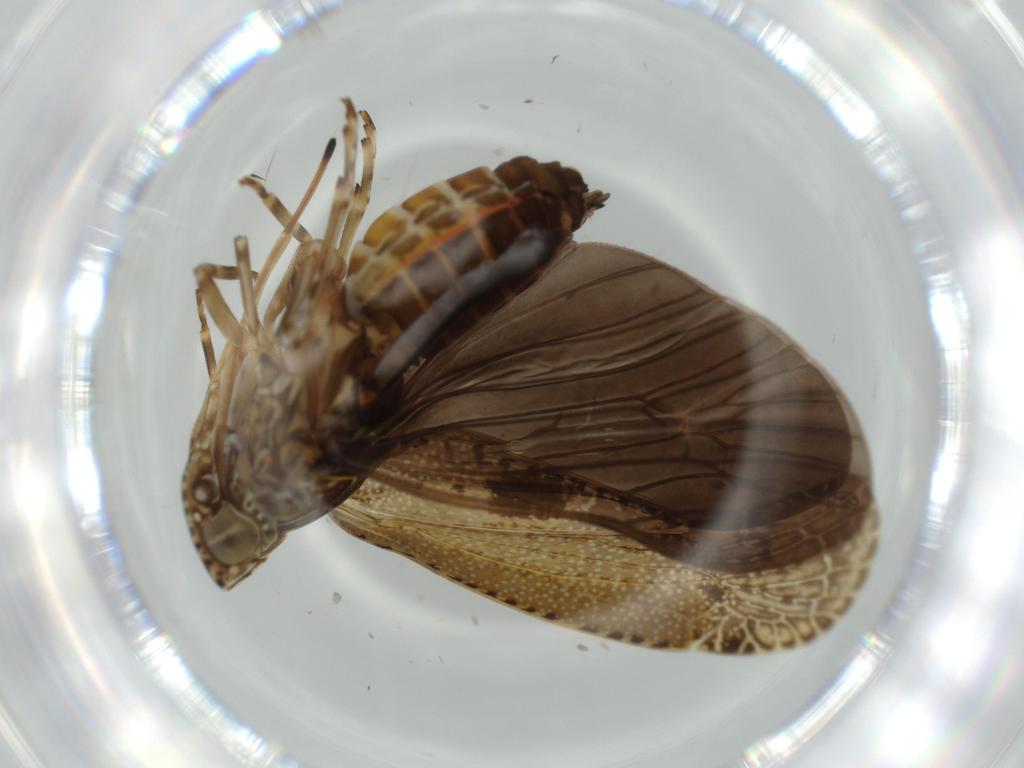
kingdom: Animalia
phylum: Arthropoda
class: Insecta
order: Hemiptera
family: Achilidae
